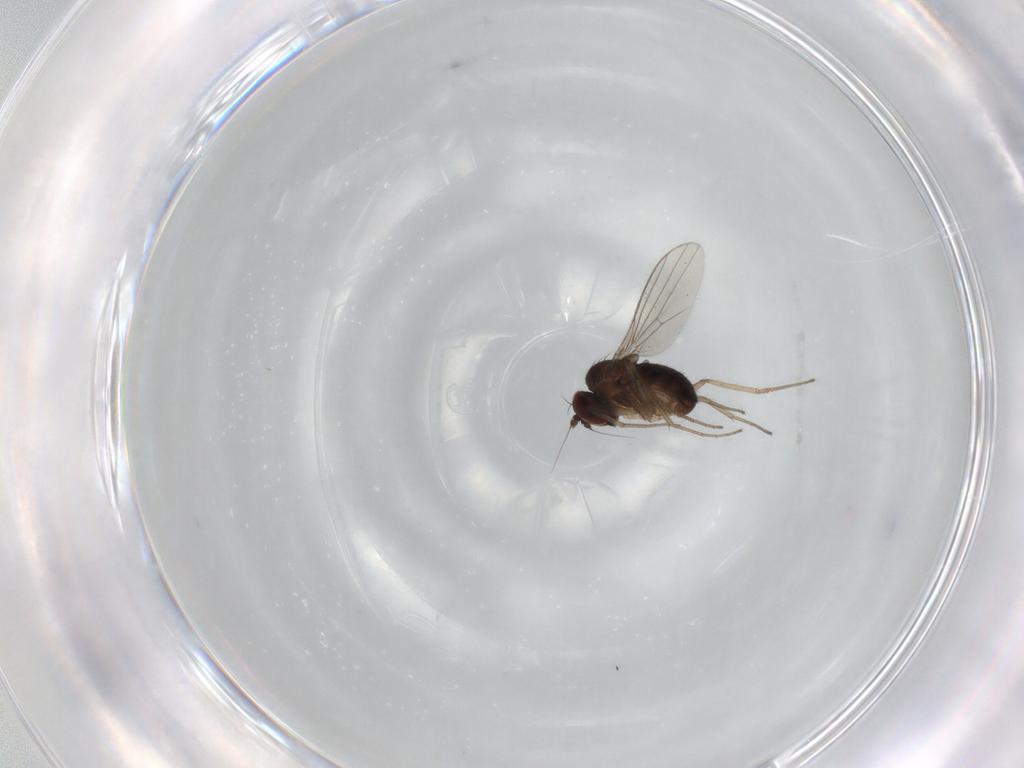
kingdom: Animalia
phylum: Arthropoda
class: Insecta
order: Diptera
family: Dolichopodidae
